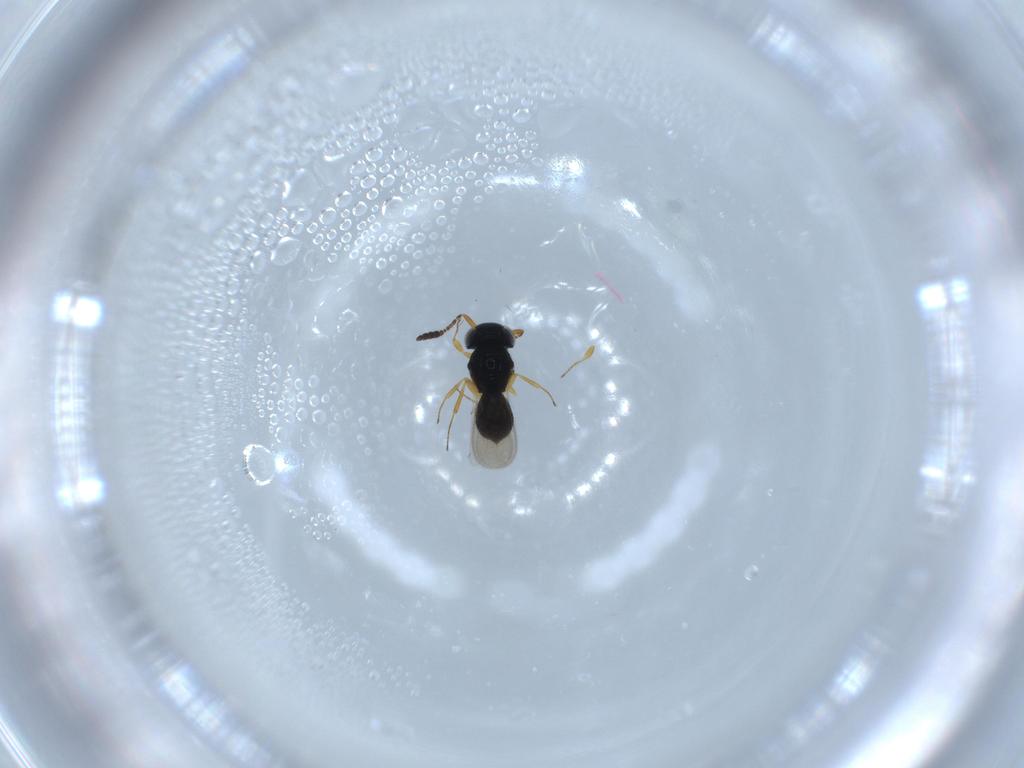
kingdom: Animalia
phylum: Arthropoda
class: Insecta
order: Hymenoptera
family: Scelionidae
